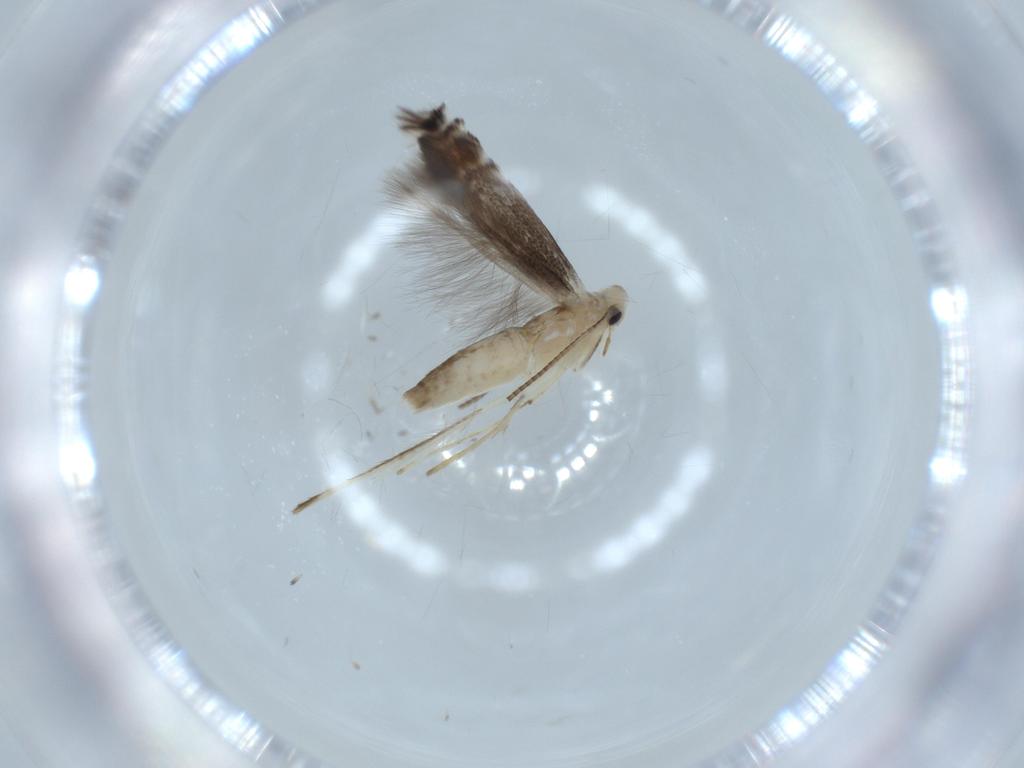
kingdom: Animalia
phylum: Arthropoda
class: Insecta
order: Lepidoptera
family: Gracillariidae
